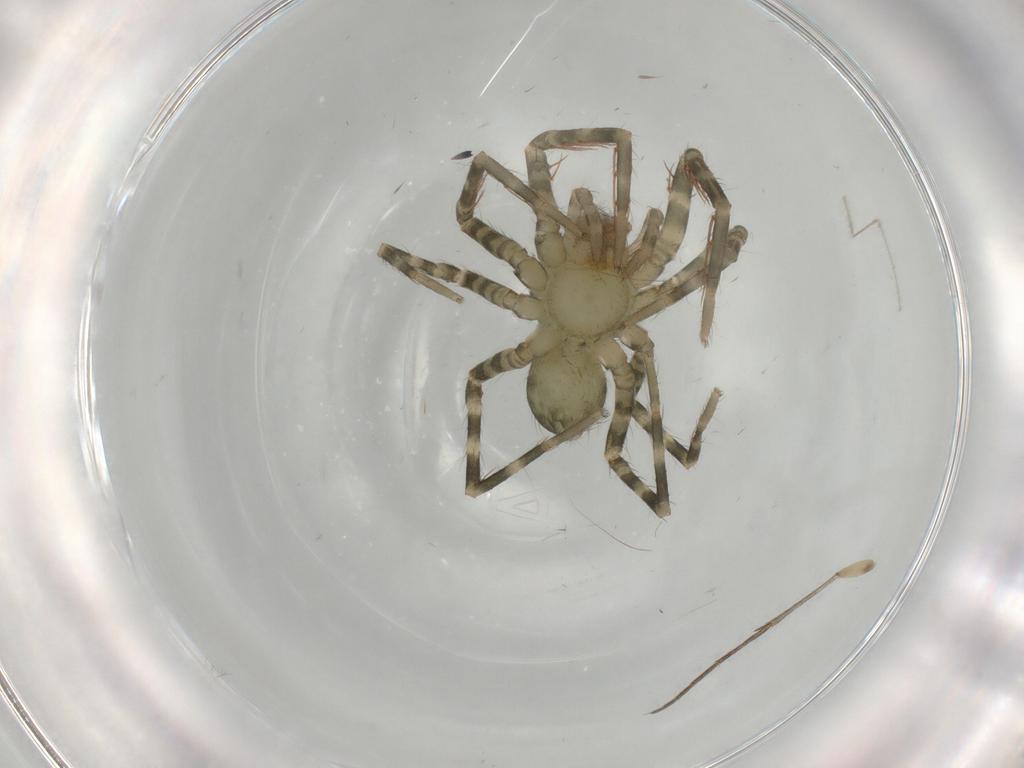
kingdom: Animalia
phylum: Arthropoda
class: Arachnida
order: Araneae
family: Ctenidae
